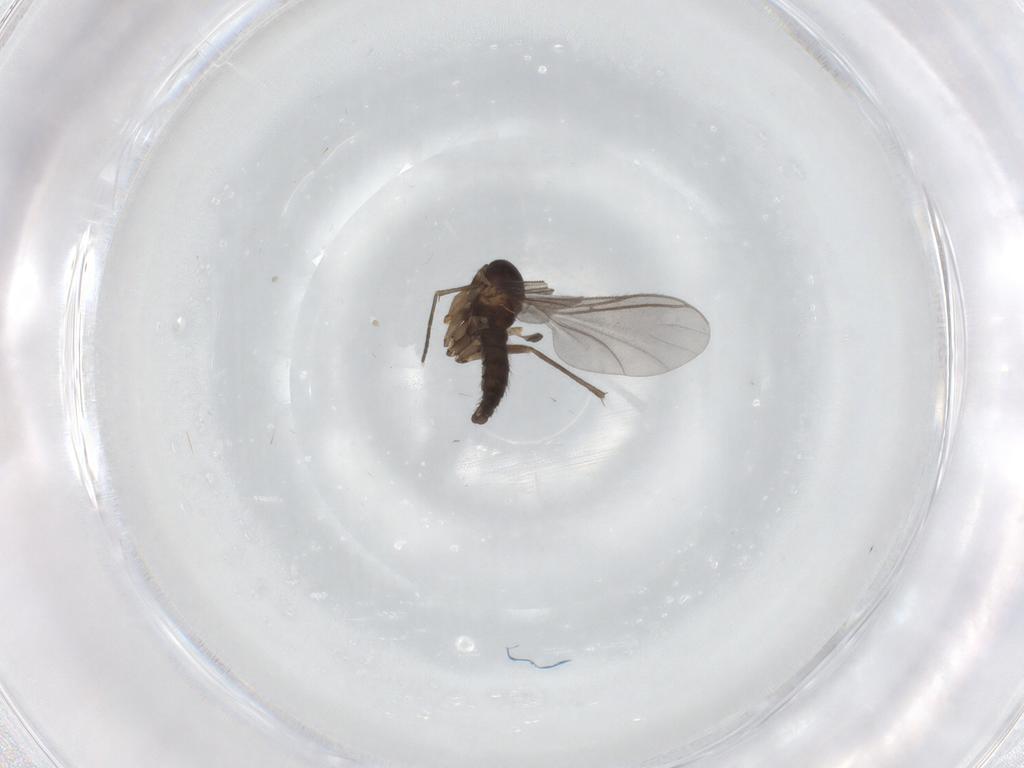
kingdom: Animalia
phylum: Arthropoda
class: Insecta
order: Diptera
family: Sciaridae
